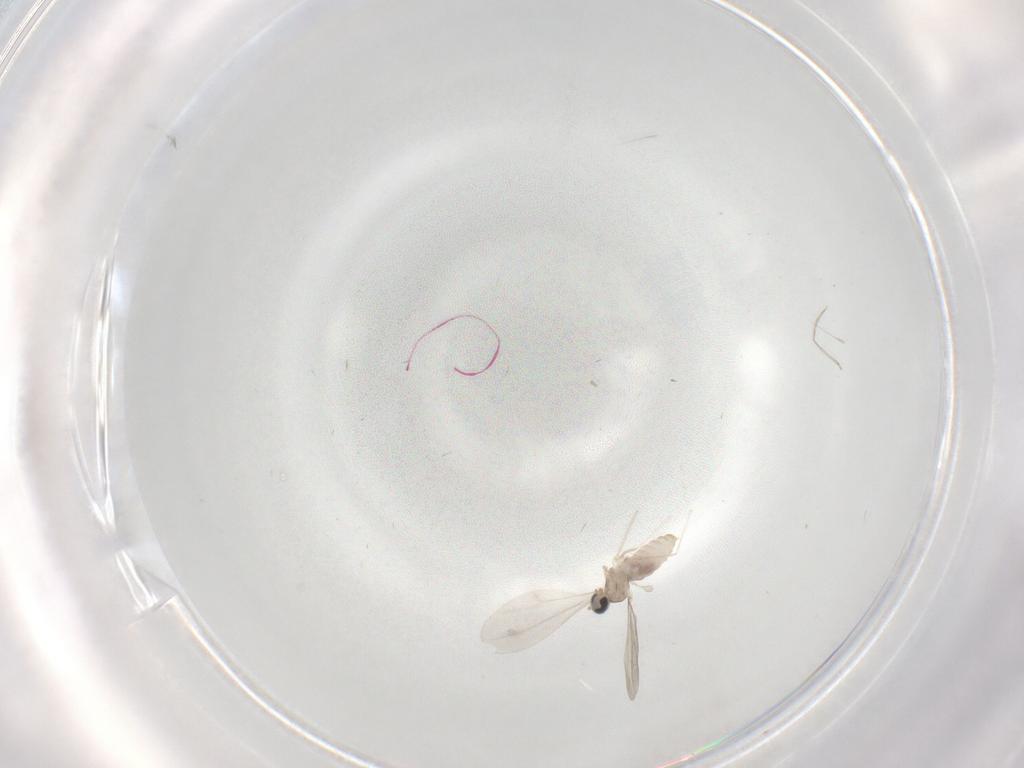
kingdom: Animalia
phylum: Arthropoda
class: Insecta
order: Diptera
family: Cecidomyiidae
